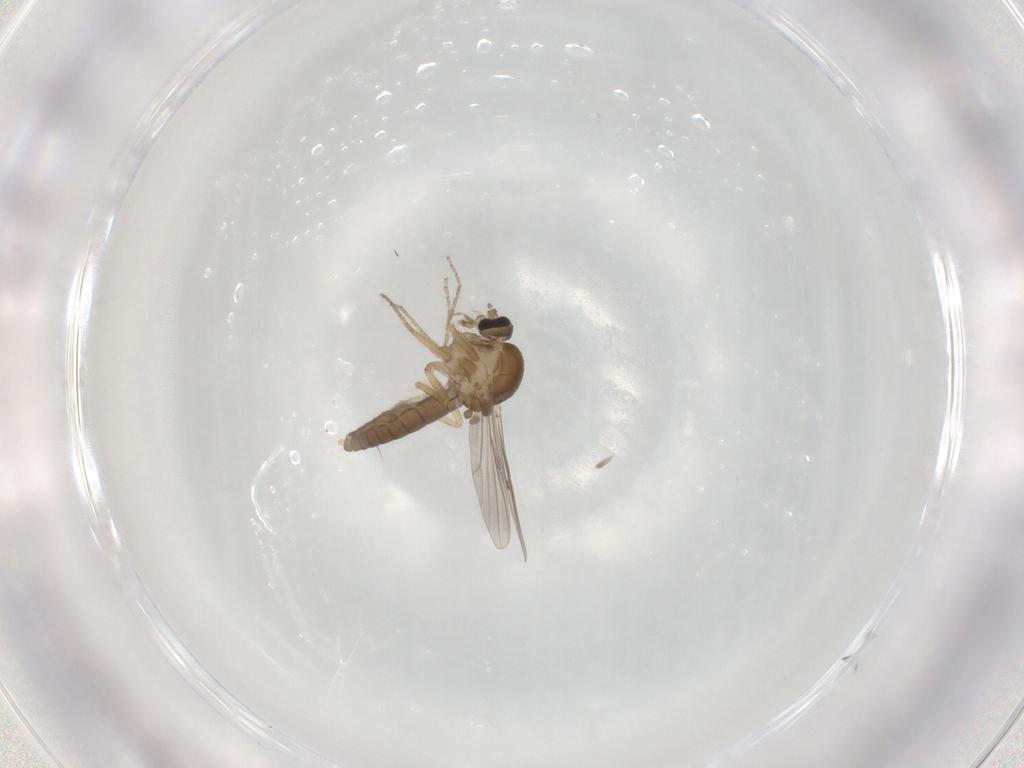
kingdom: Animalia
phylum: Arthropoda
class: Insecta
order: Diptera
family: Ceratopogonidae
